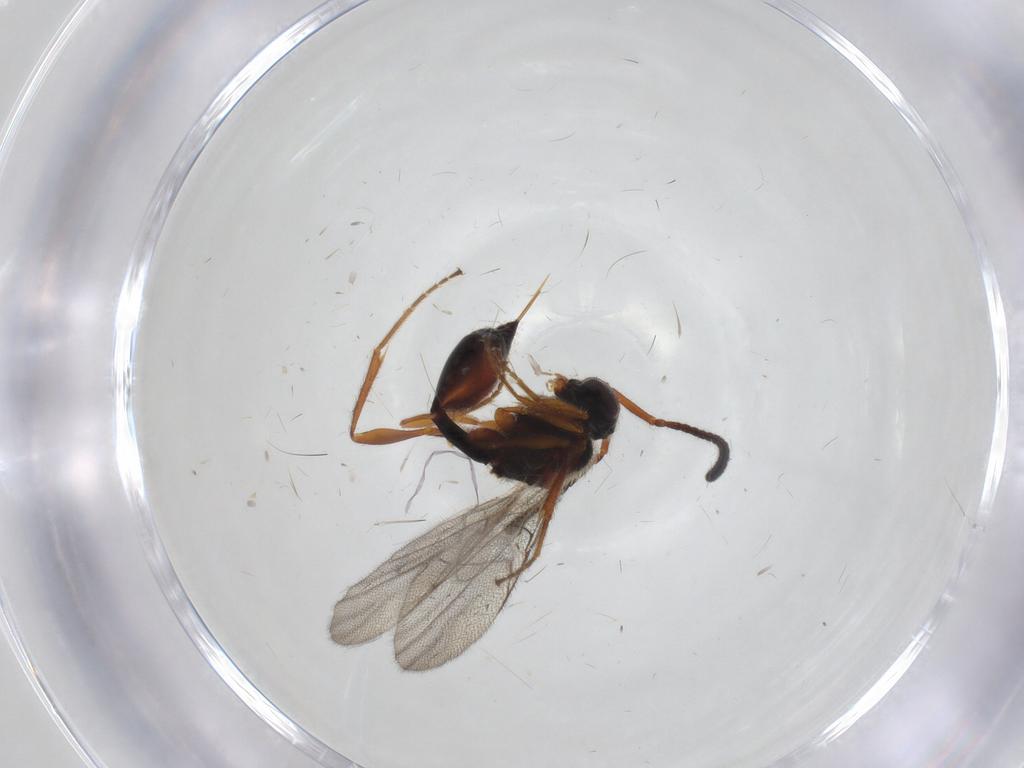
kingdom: Animalia
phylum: Arthropoda
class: Insecta
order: Hymenoptera
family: Diapriidae
